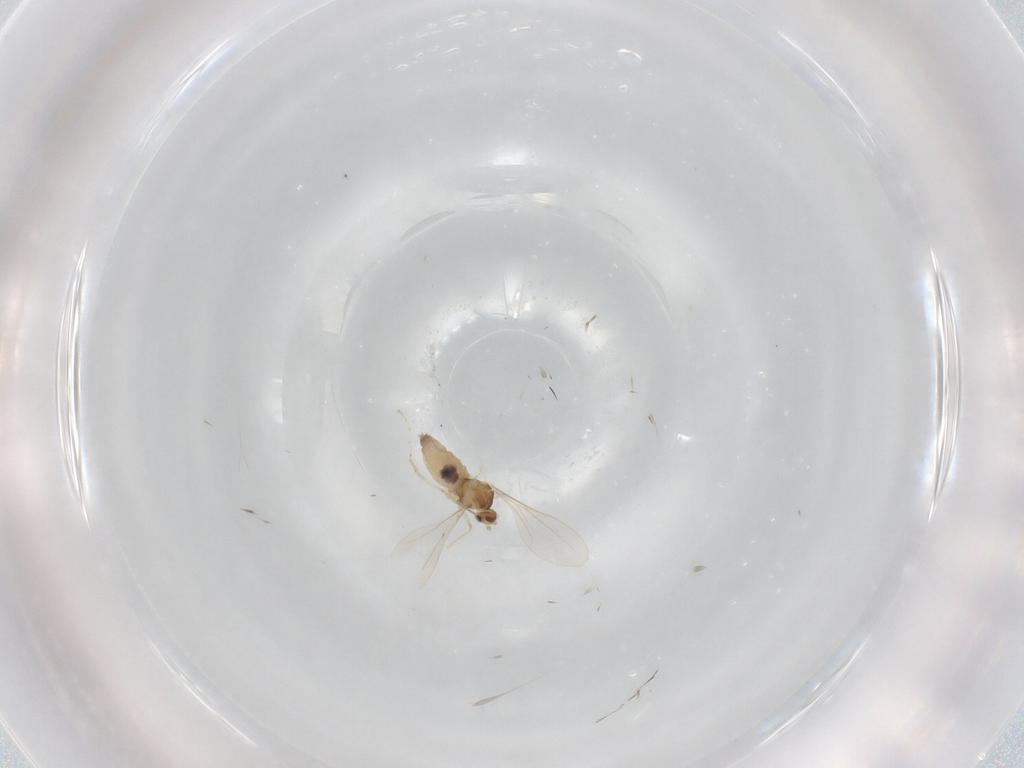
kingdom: Animalia
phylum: Arthropoda
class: Insecta
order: Diptera
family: Cecidomyiidae
